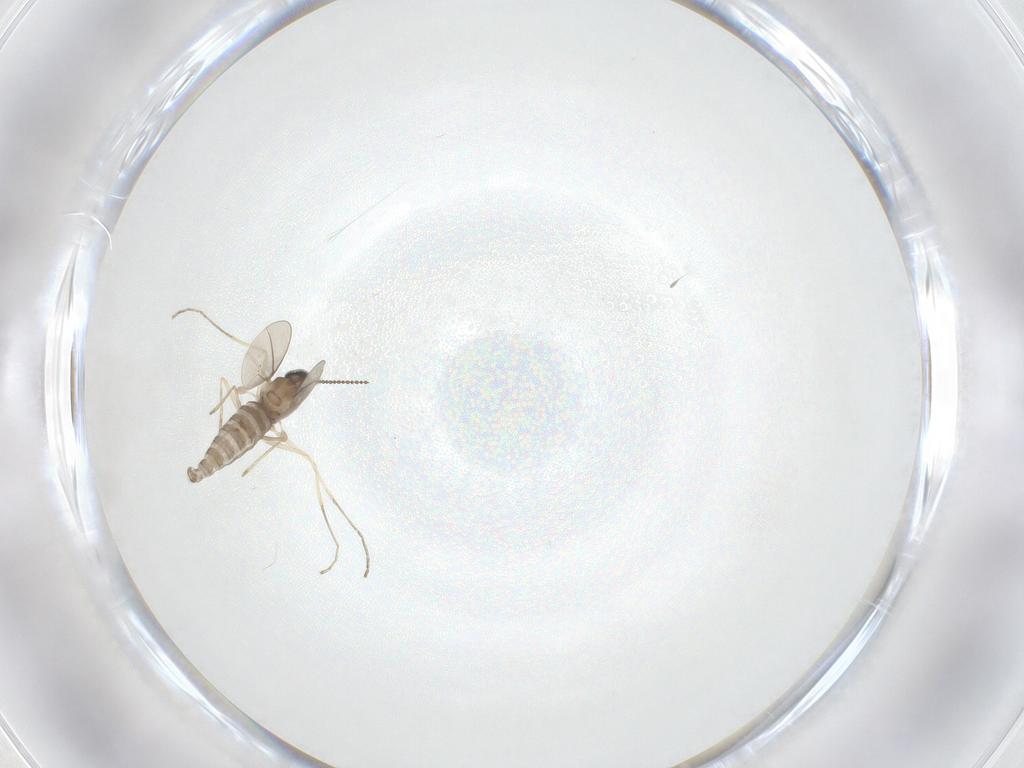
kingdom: Animalia
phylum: Arthropoda
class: Insecta
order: Diptera
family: Cecidomyiidae
